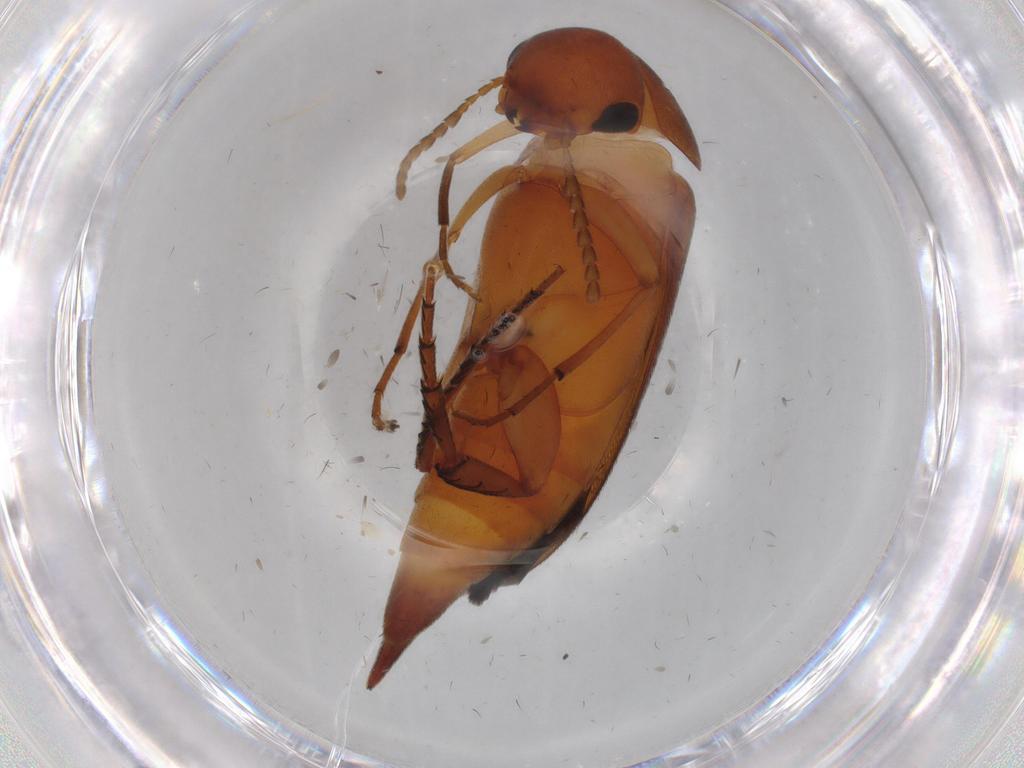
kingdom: Animalia
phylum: Arthropoda
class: Insecta
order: Coleoptera
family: Mordellidae
